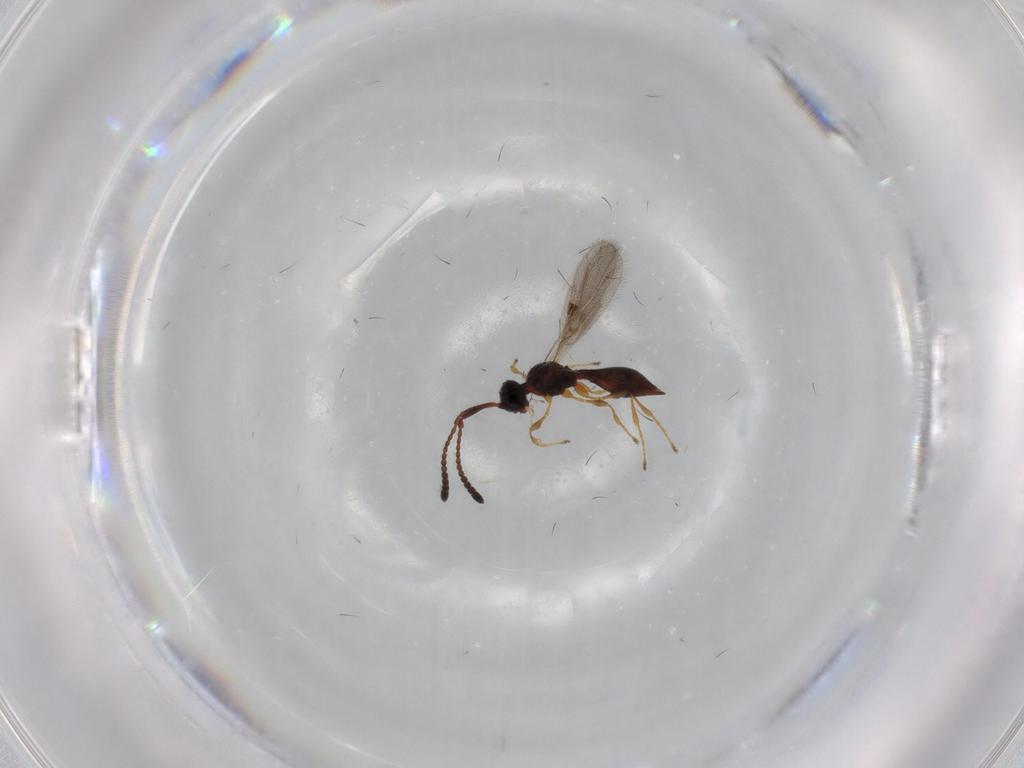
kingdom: Animalia
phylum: Arthropoda
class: Insecta
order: Hymenoptera
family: Diapriidae
